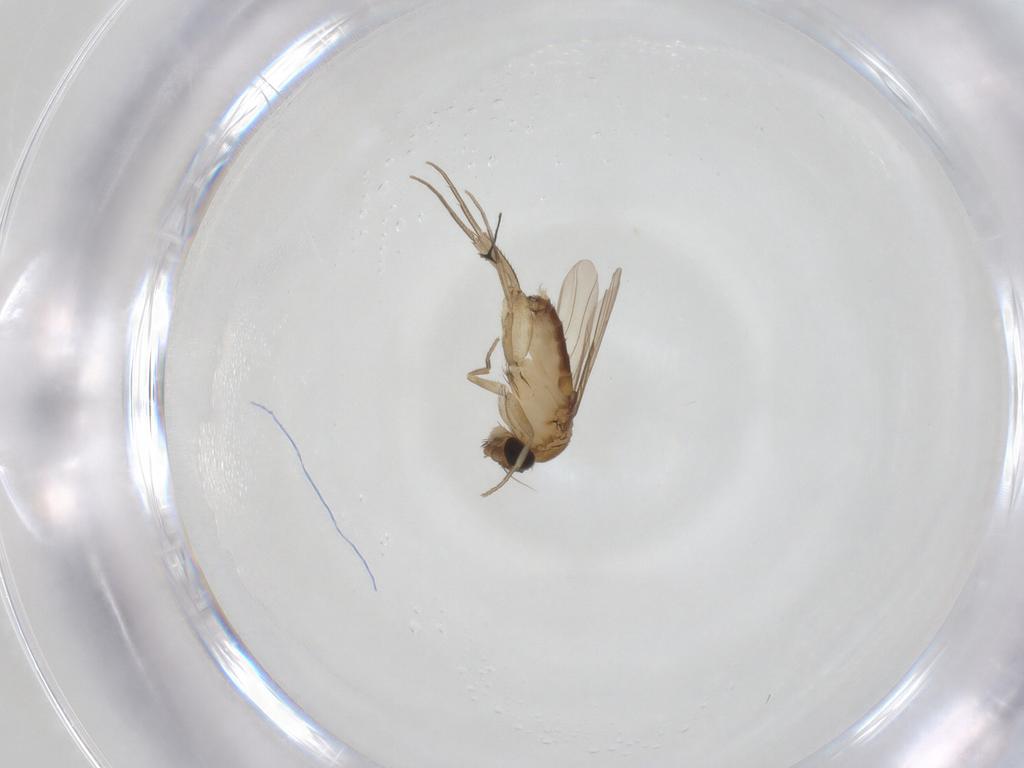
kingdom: Animalia
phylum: Arthropoda
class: Insecta
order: Diptera
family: Phoridae
